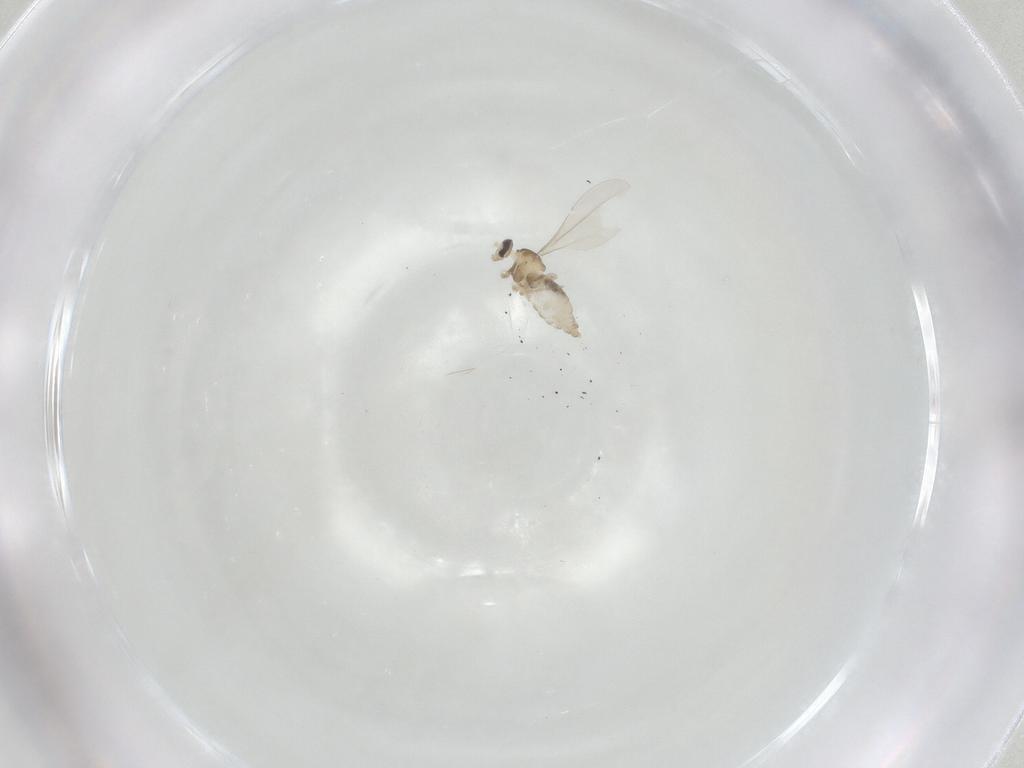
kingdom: Animalia
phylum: Arthropoda
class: Insecta
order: Diptera
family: Cecidomyiidae
